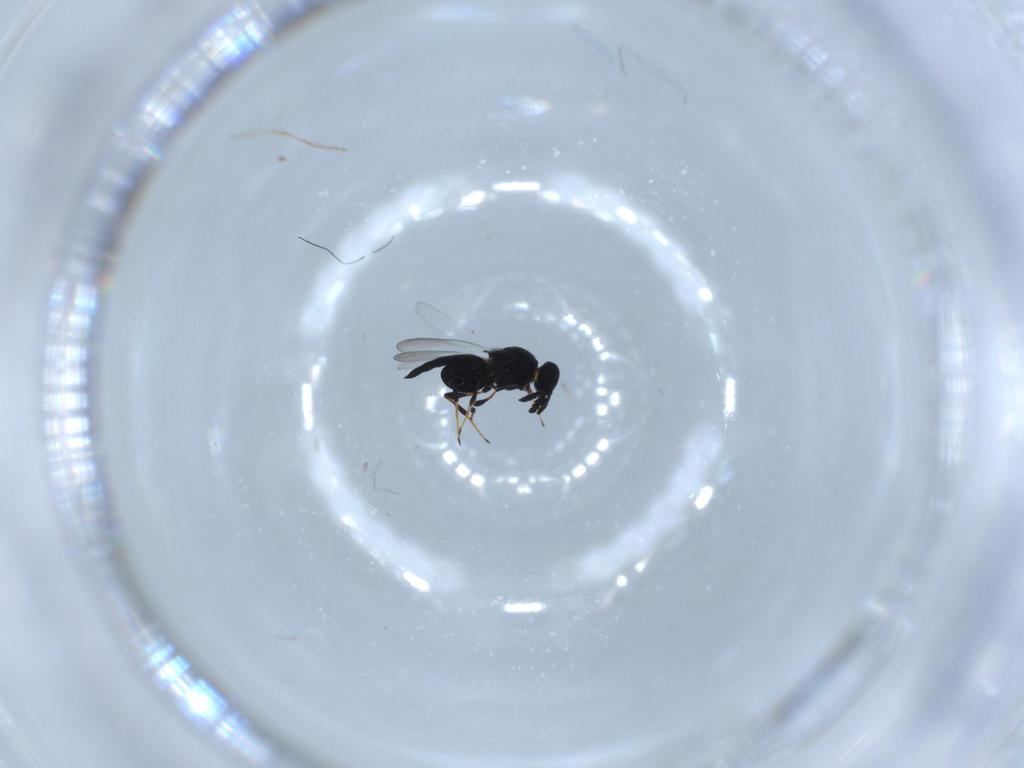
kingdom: Animalia
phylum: Arthropoda
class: Insecta
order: Hymenoptera
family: Platygastridae
